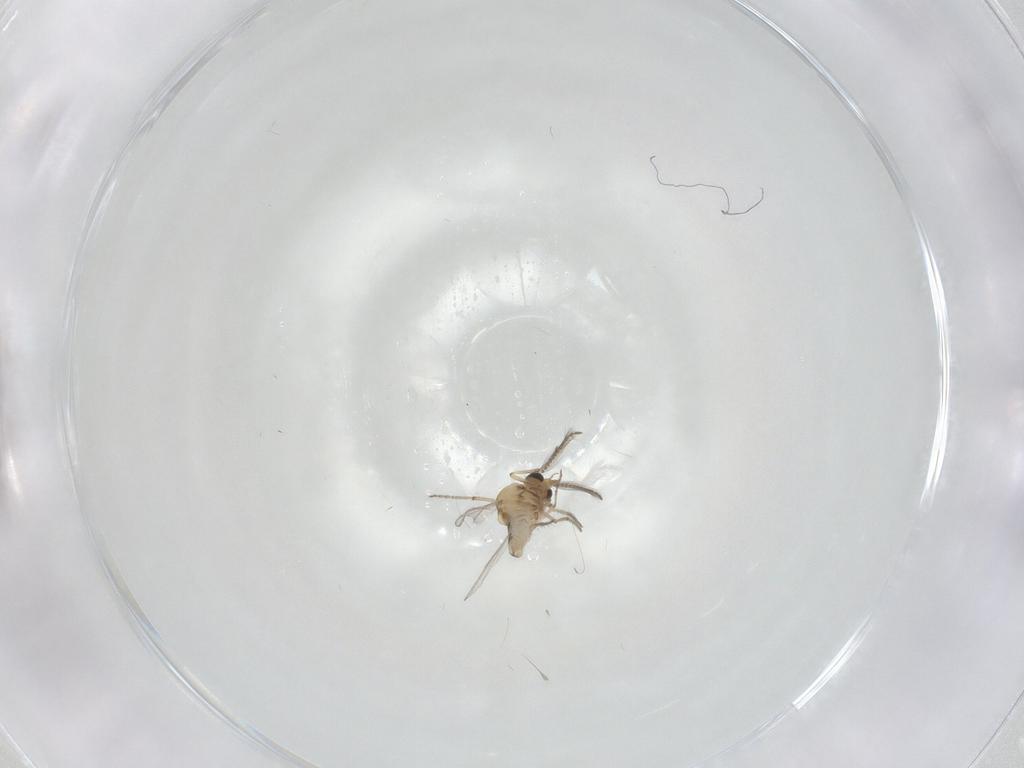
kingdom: Animalia
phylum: Arthropoda
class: Insecta
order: Diptera
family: Ceratopogonidae
